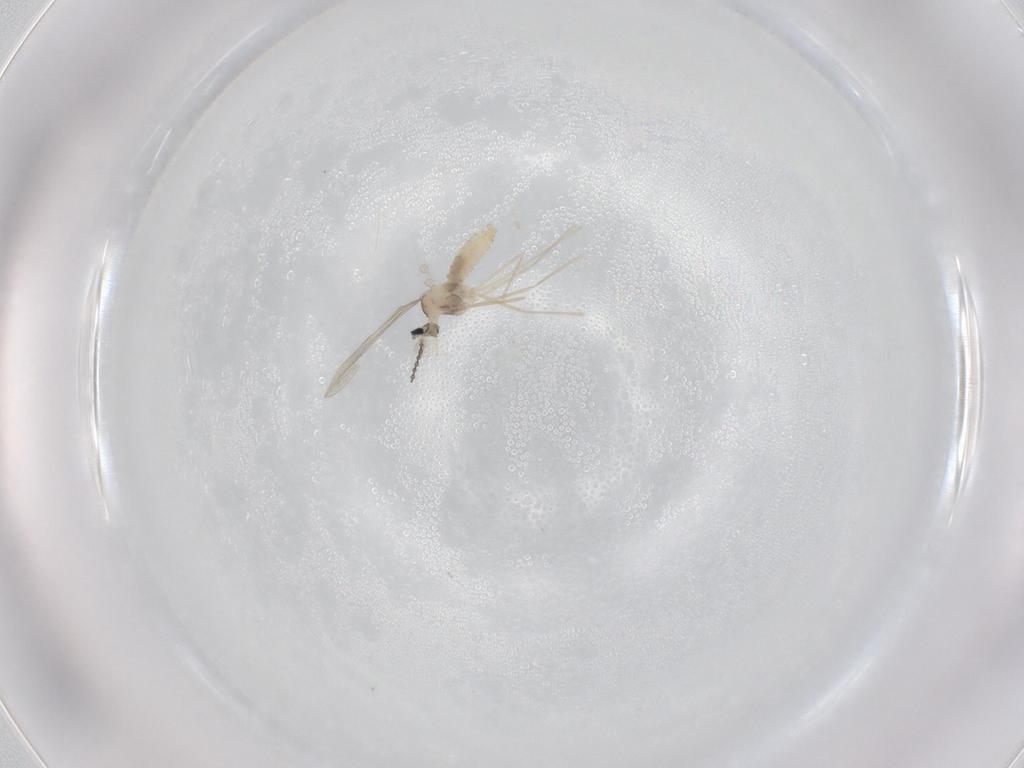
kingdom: Animalia
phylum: Arthropoda
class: Insecta
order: Diptera
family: Cecidomyiidae
